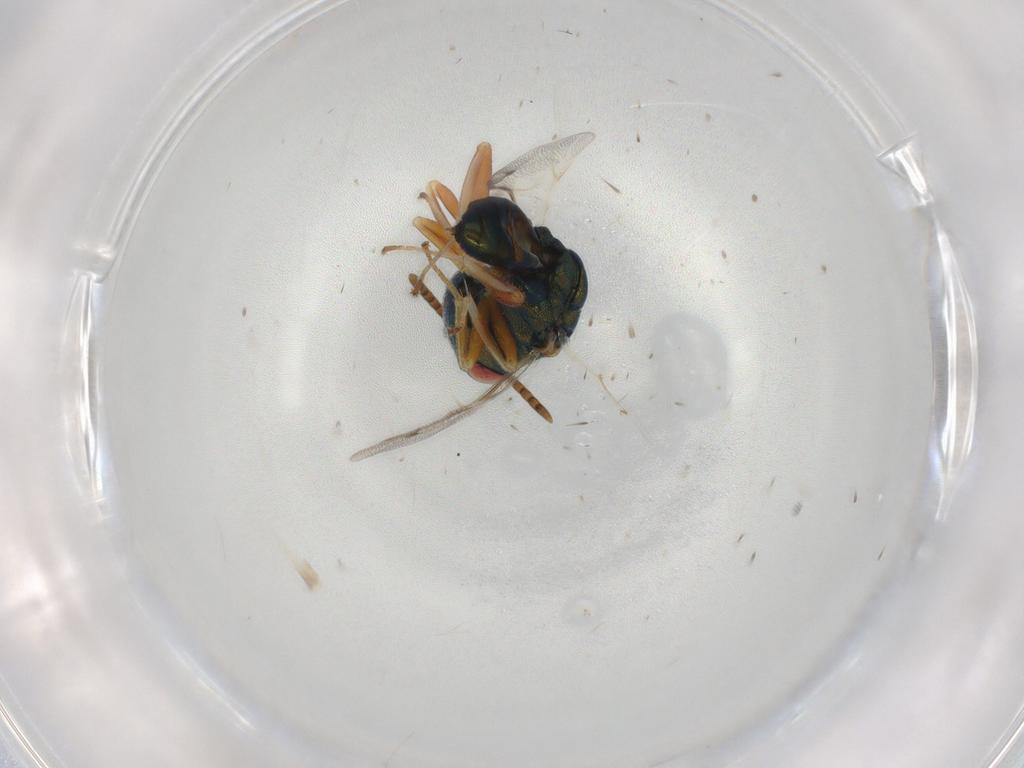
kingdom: Animalia
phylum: Arthropoda
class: Insecta
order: Hymenoptera
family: Pteromalidae
